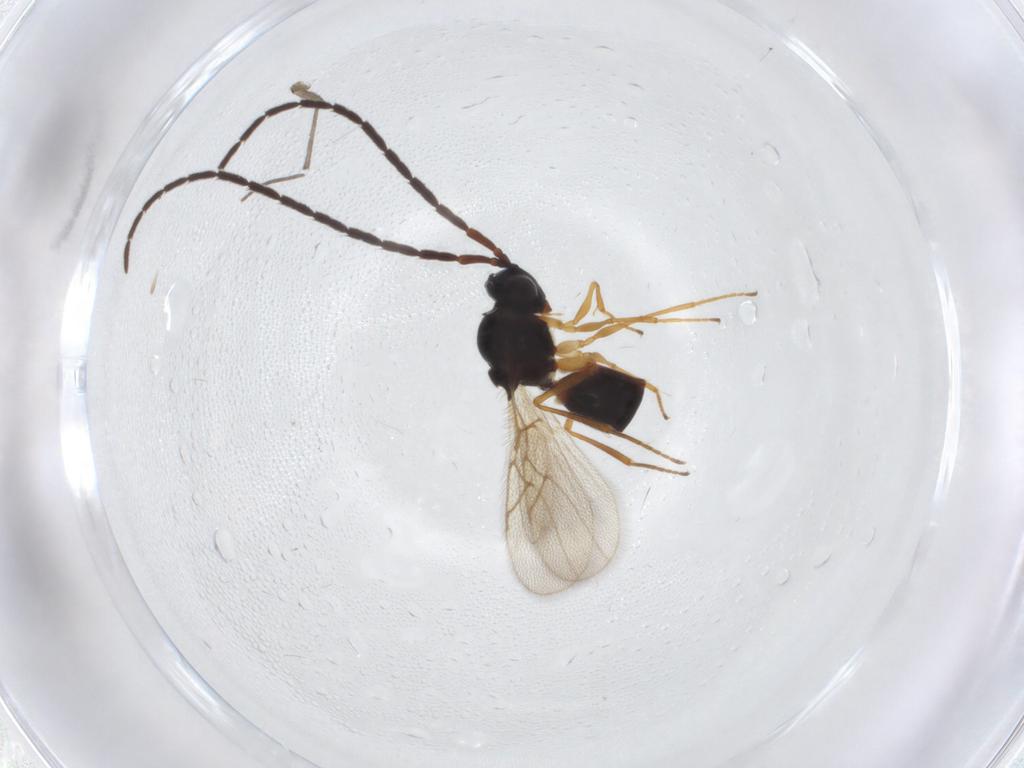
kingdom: Animalia
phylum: Arthropoda
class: Insecta
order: Hymenoptera
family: Figitidae
